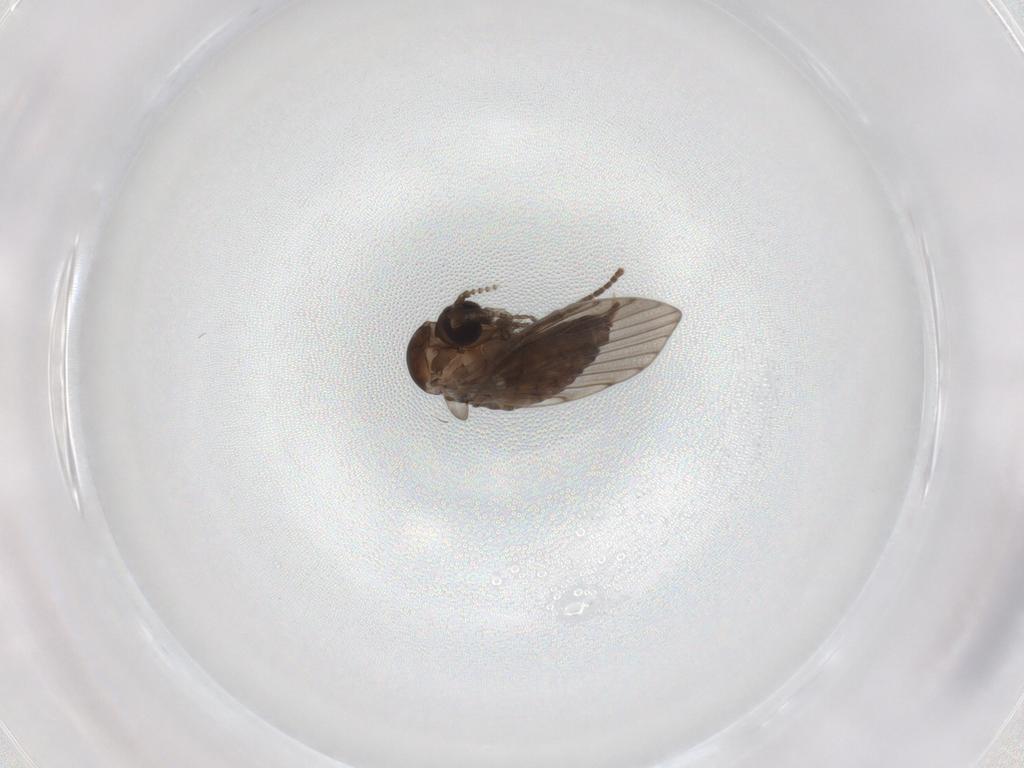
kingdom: Animalia
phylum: Arthropoda
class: Insecta
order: Diptera
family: Psychodidae
